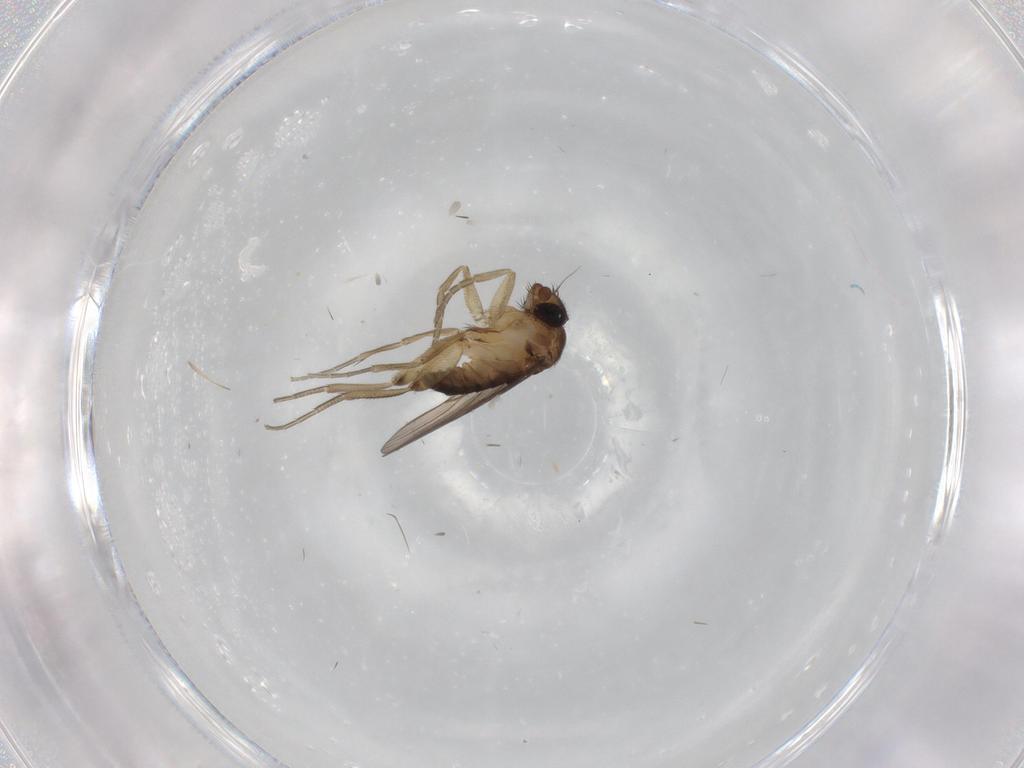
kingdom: Animalia
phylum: Arthropoda
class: Insecta
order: Diptera
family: Phoridae
